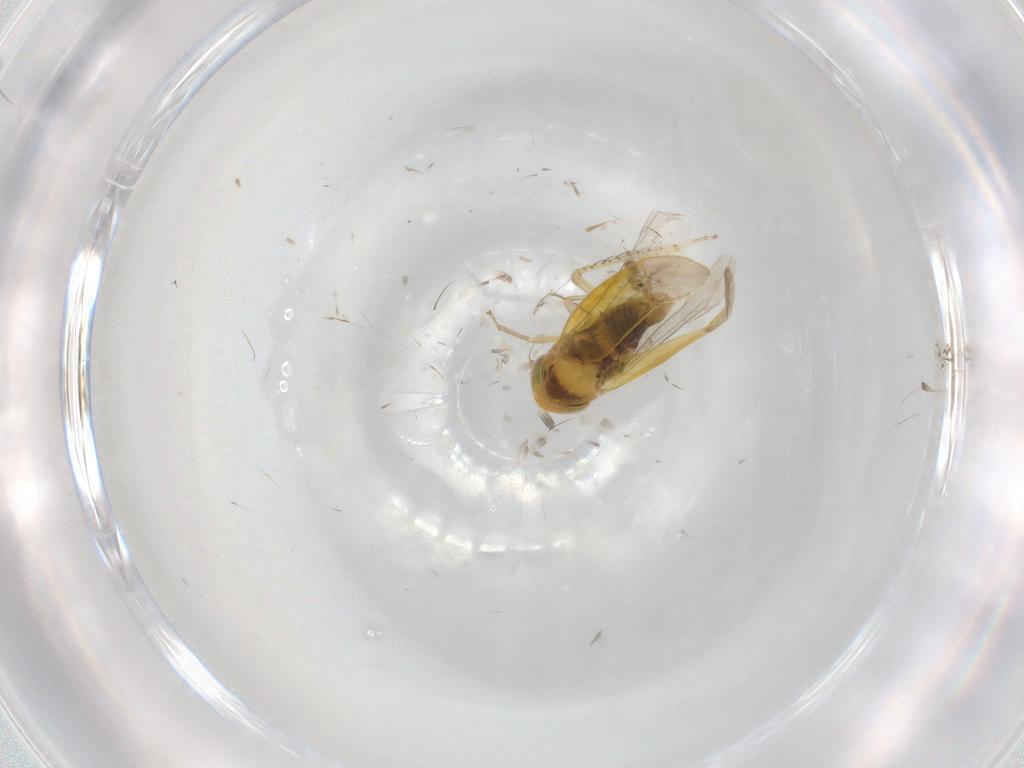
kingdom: Animalia
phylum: Arthropoda
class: Insecta
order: Hemiptera
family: Cicadellidae
